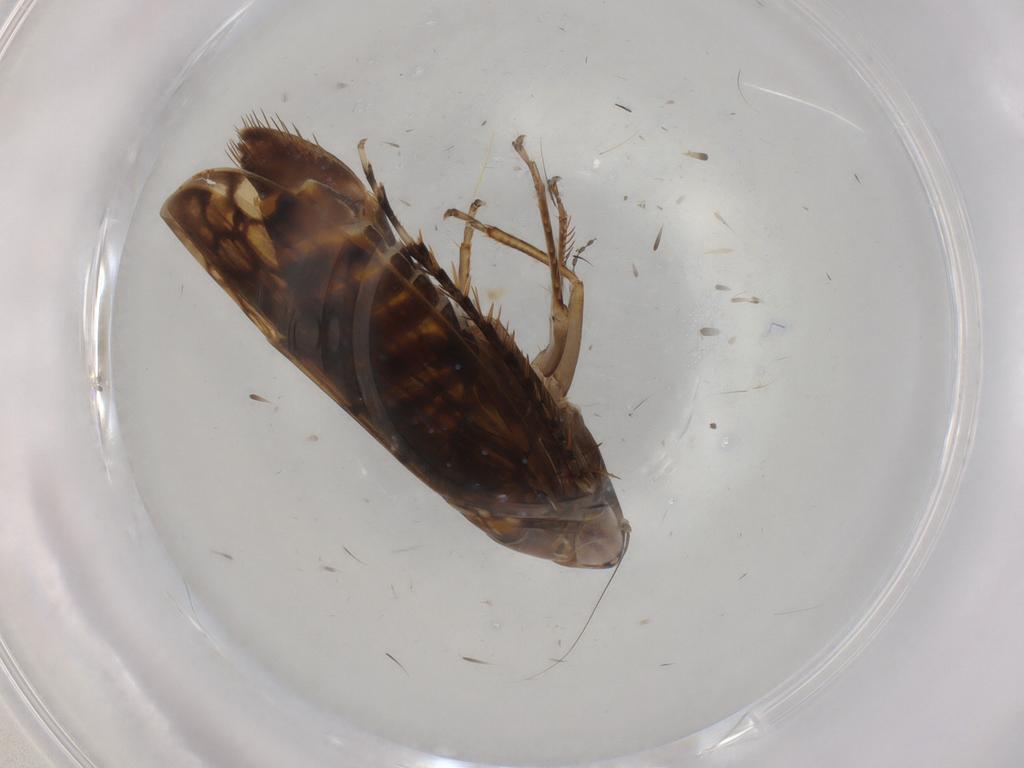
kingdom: Animalia
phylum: Arthropoda
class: Insecta
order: Hemiptera
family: Cicadellidae
